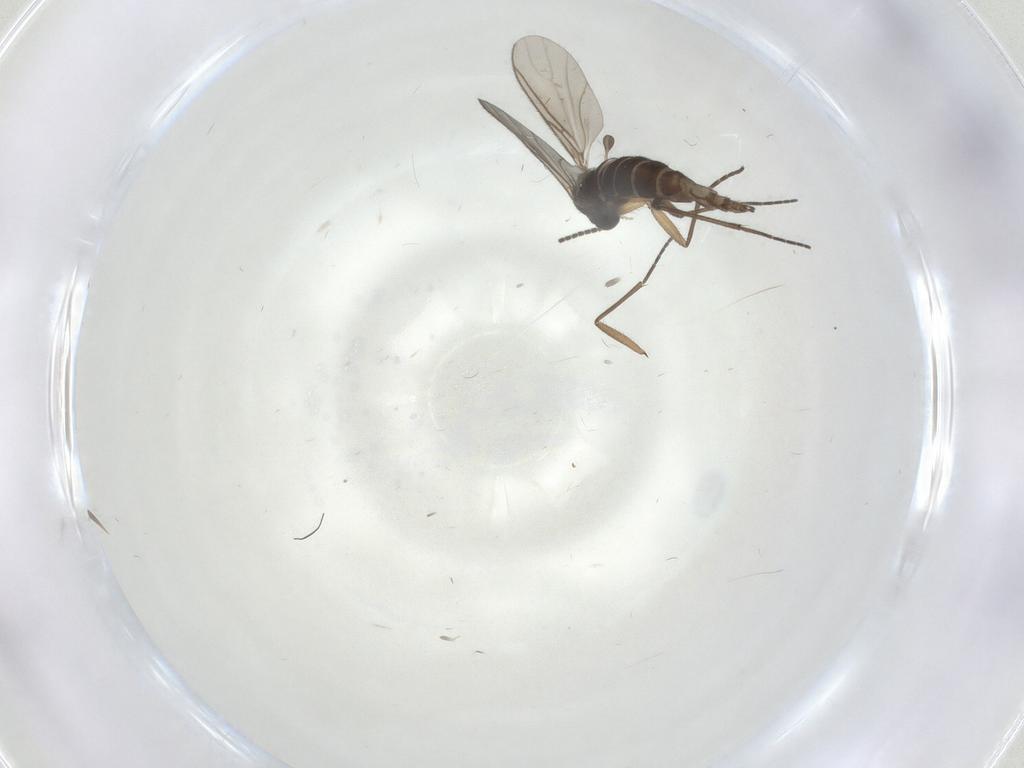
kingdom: Animalia
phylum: Arthropoda
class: Insecta
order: Diptera
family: Sciaridae
